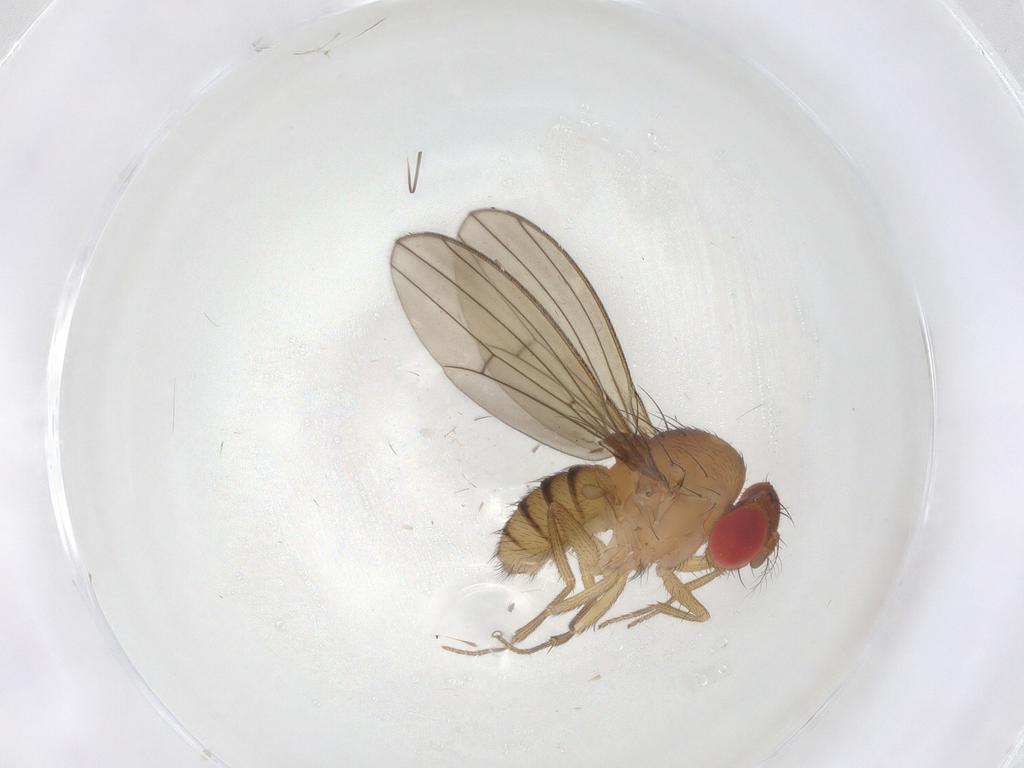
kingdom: Animalia
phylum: Arthropoda
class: Insecta
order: Diptera
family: Drosophilidae
